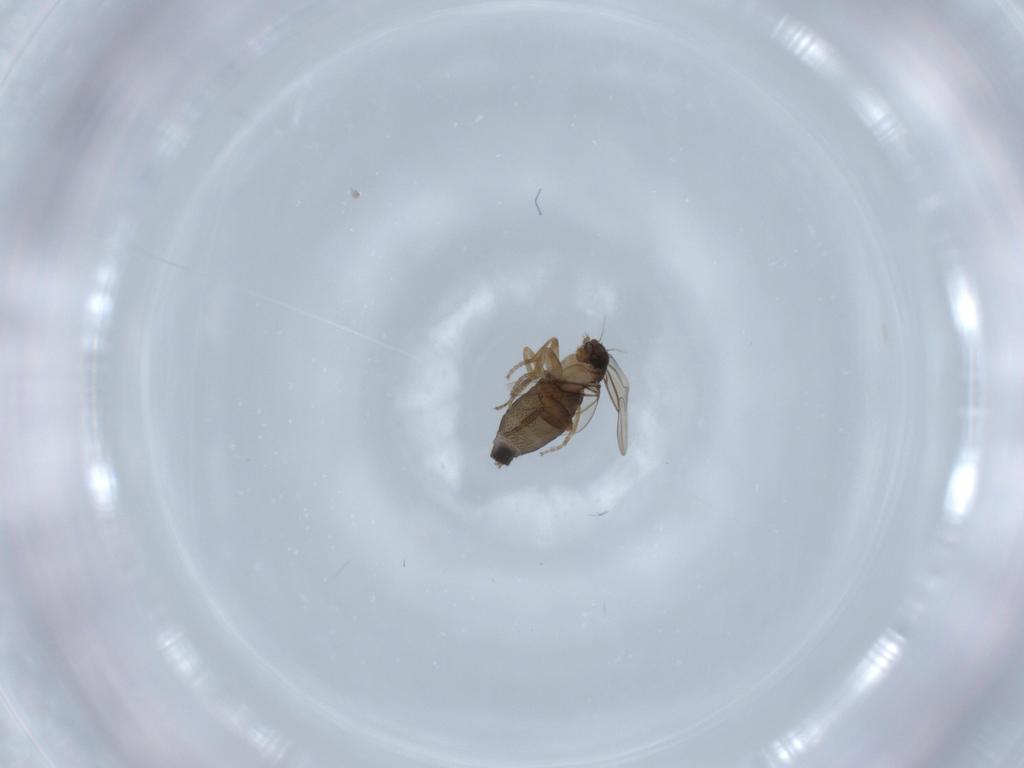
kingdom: Animalia
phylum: Arthropoda
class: Insecta
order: Diptera
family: Phoridae
